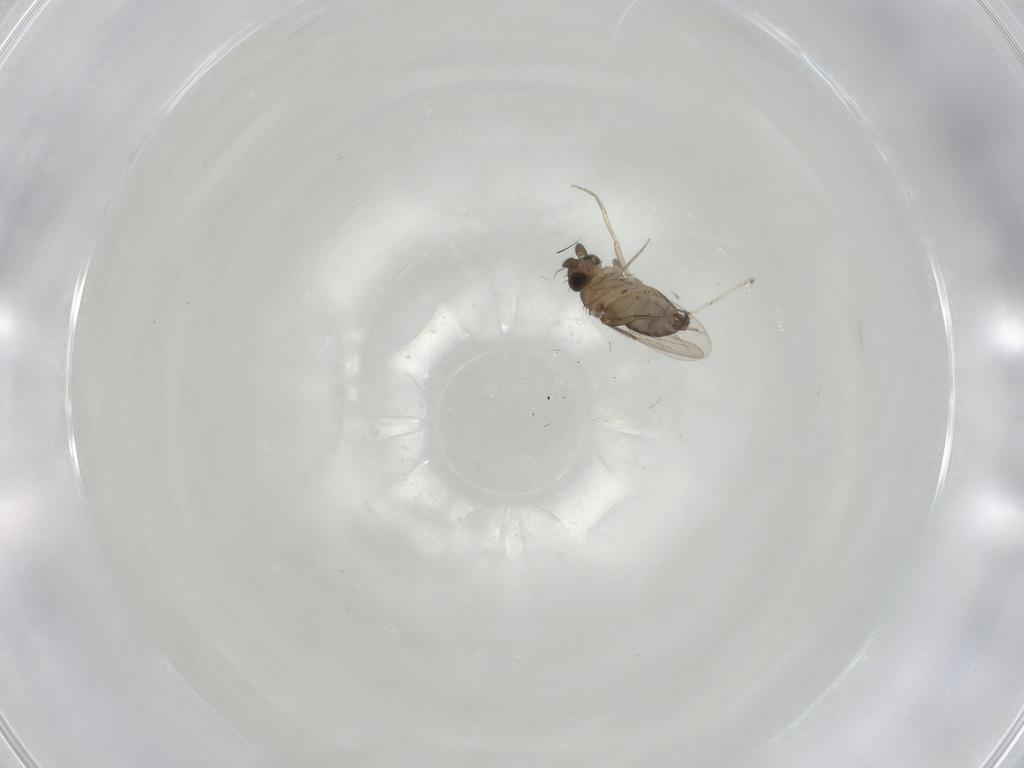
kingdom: Animalia
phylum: Arthropoda
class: Insecta
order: Diptera
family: Phoridae
